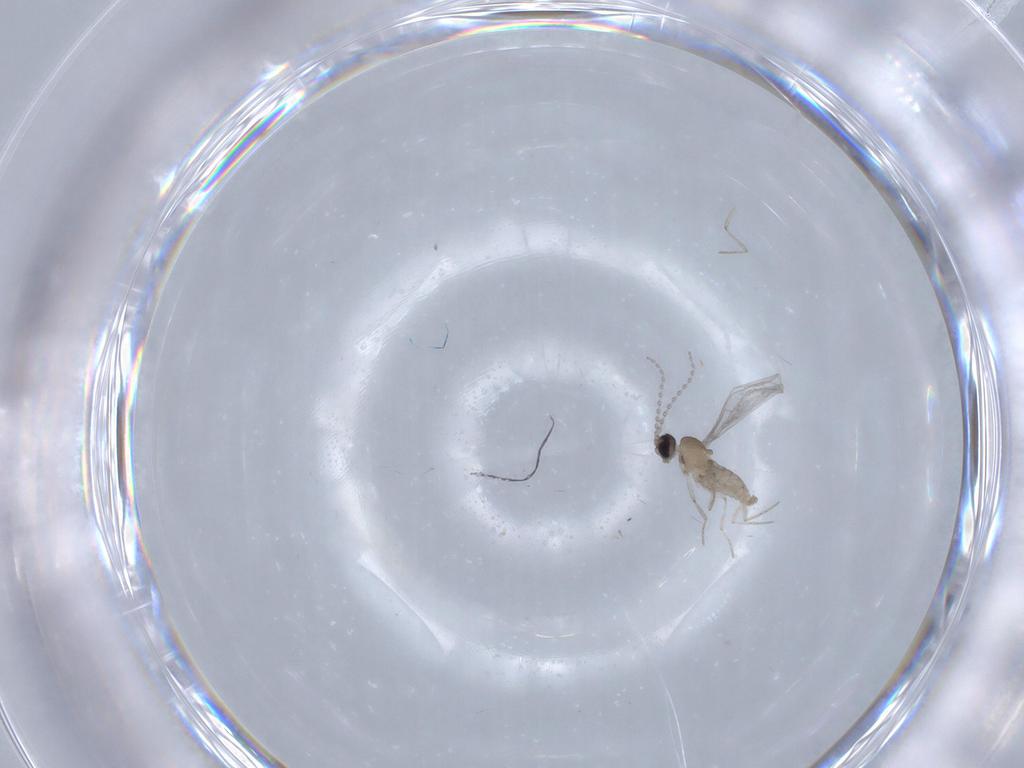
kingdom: Animalia
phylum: Arthropoda
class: Insecta
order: Diptera
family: Cecidomyiidae
